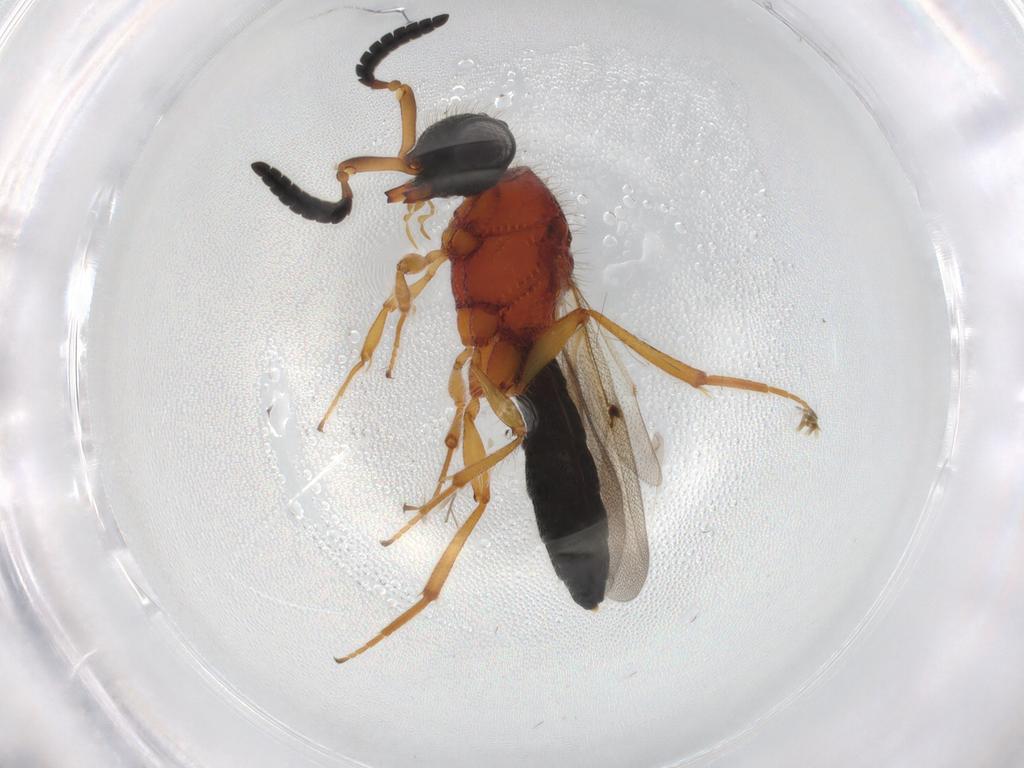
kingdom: Animalia
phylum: Arthropoda
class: Insecta
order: Hymenoptera
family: Scelionidae
